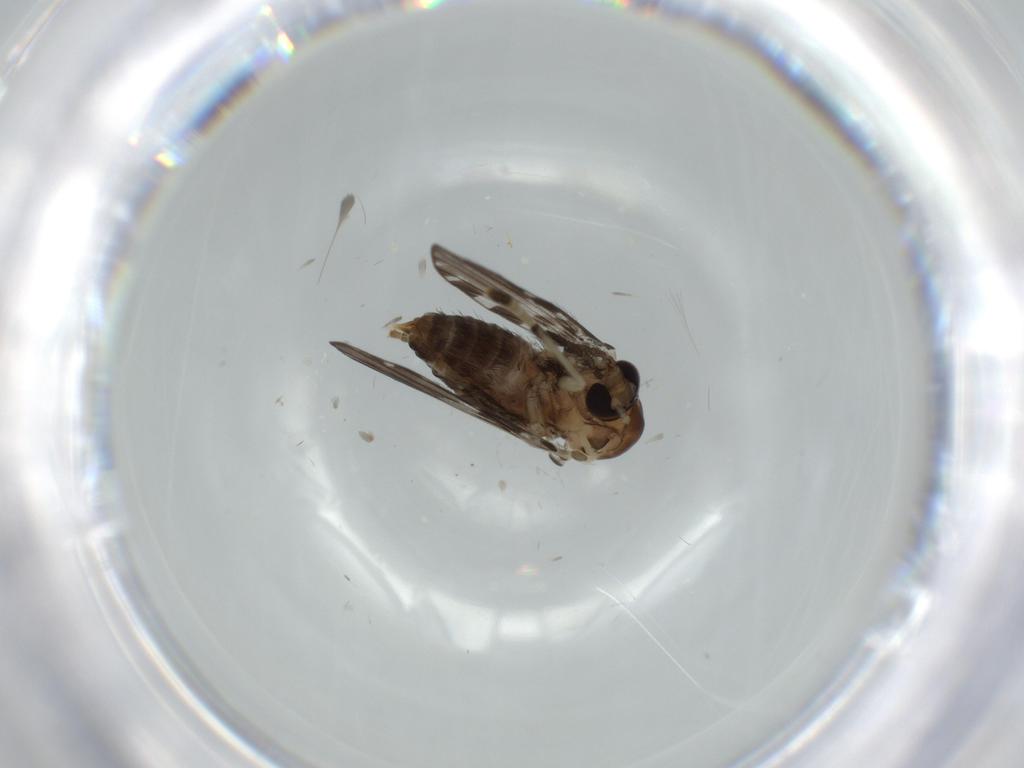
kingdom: Animalia
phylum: Arthropoda
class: Insecta
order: Diptera
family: Psychodidae
